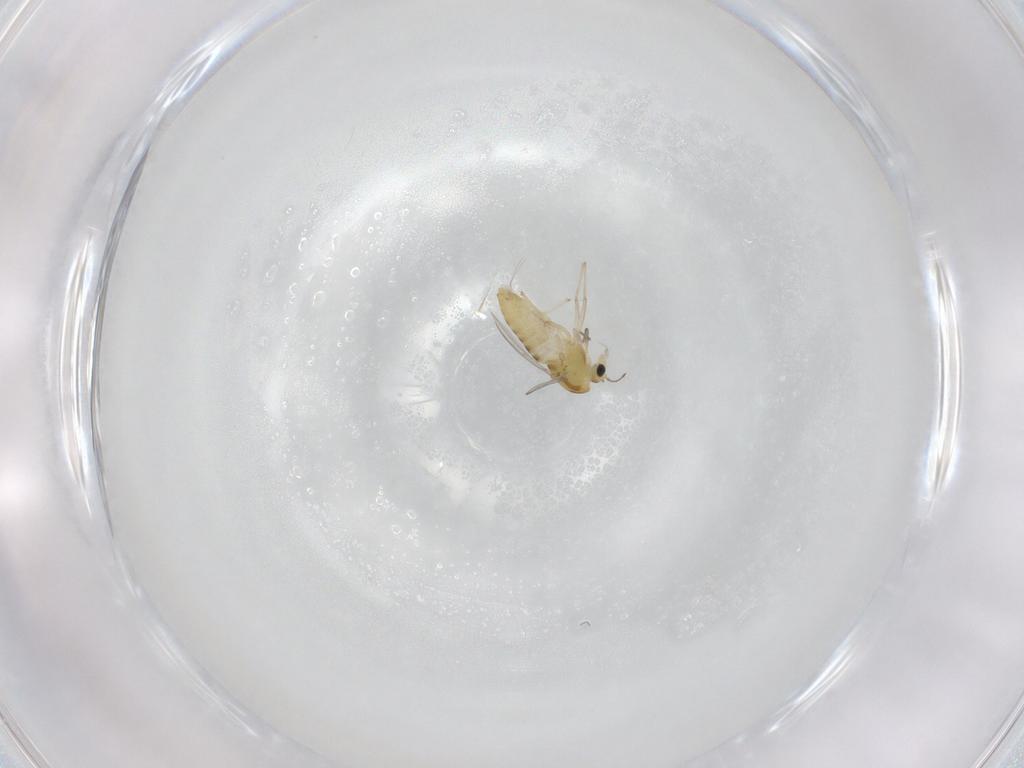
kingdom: Animalia
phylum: Arthropoda
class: Insecta
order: Diptera
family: Chironomidae
